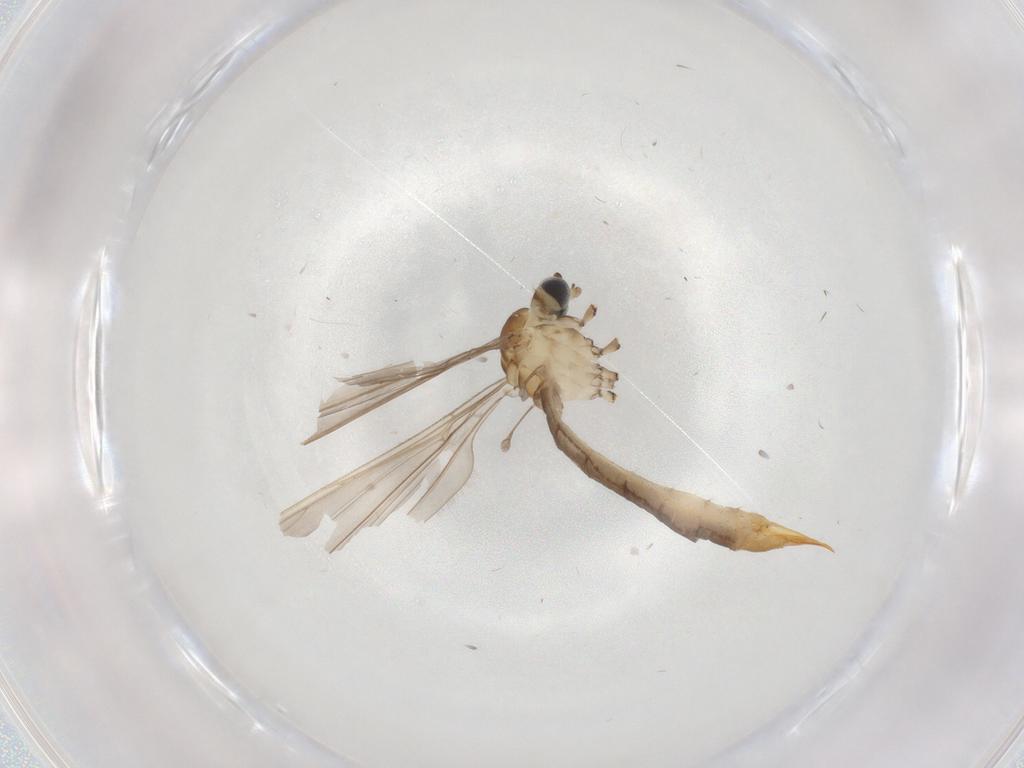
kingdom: Animalia
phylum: Arthropoda
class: Insecta
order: Diptera
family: Limoniidae
